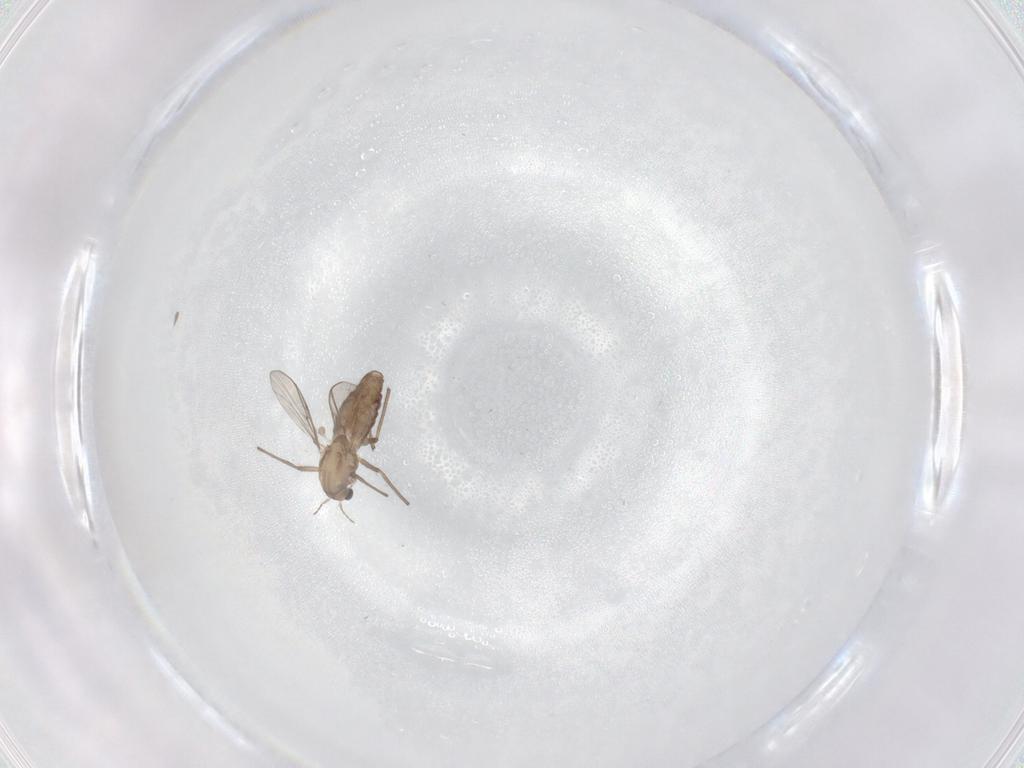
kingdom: Animalia
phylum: Arthropoda
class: Insecta
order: Diptera
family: Chironomidae
